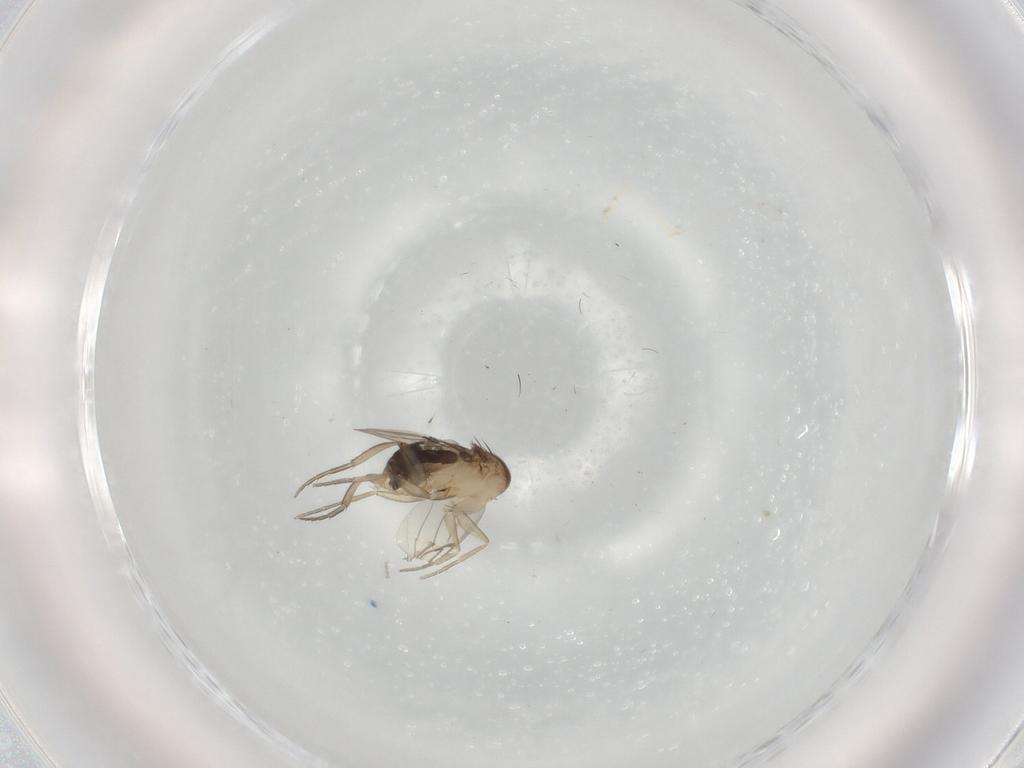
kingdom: Animalia
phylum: Arthropoda
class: Insecta
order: Diptera
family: Phoridae
